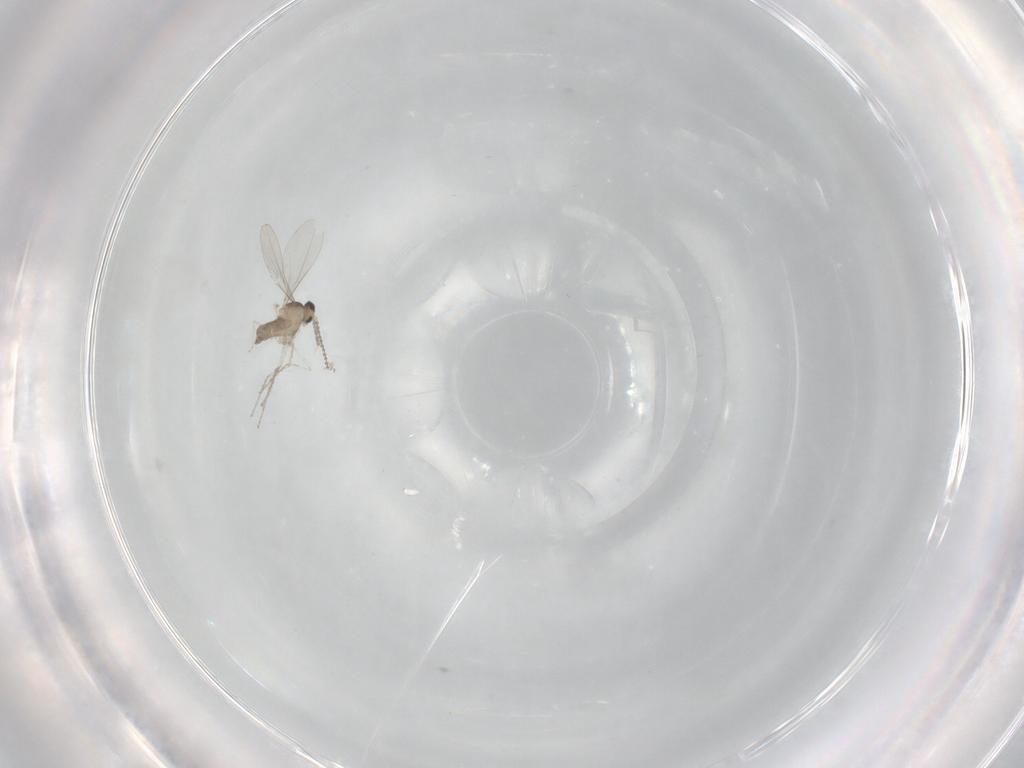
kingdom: Animalia
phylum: Arthropoda
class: Insecta
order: Diptera
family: Cecidomyiidae
